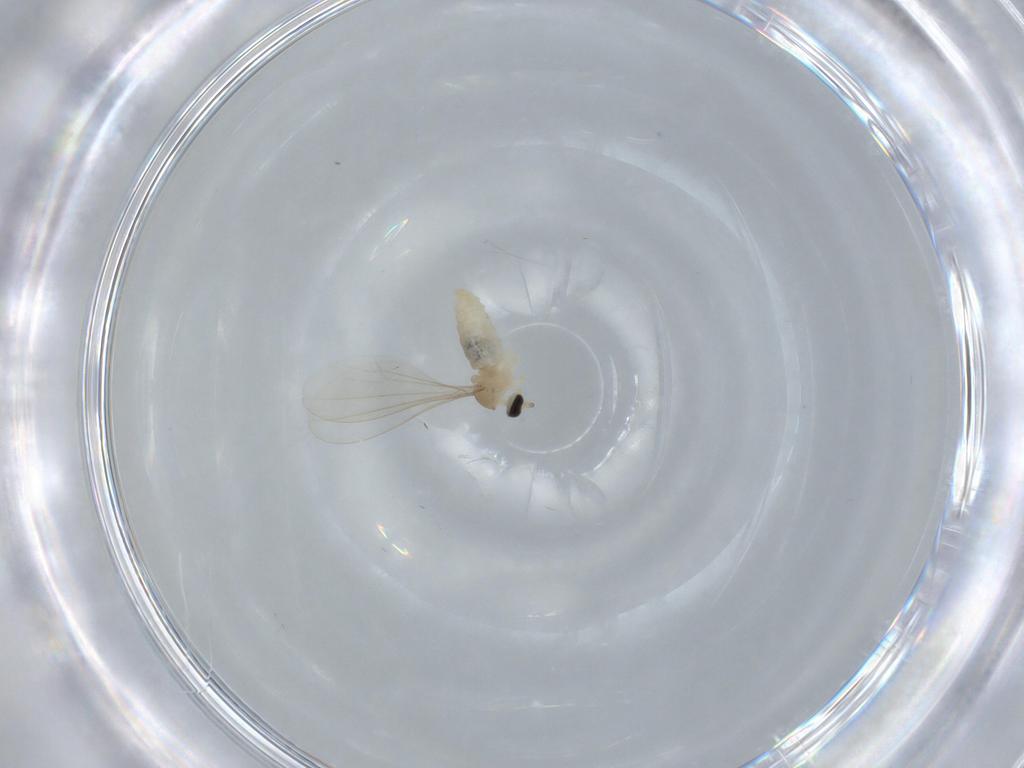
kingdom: Animalia
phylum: Arthropoda
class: Insecta
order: Diptera
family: Cecidomyiidae
